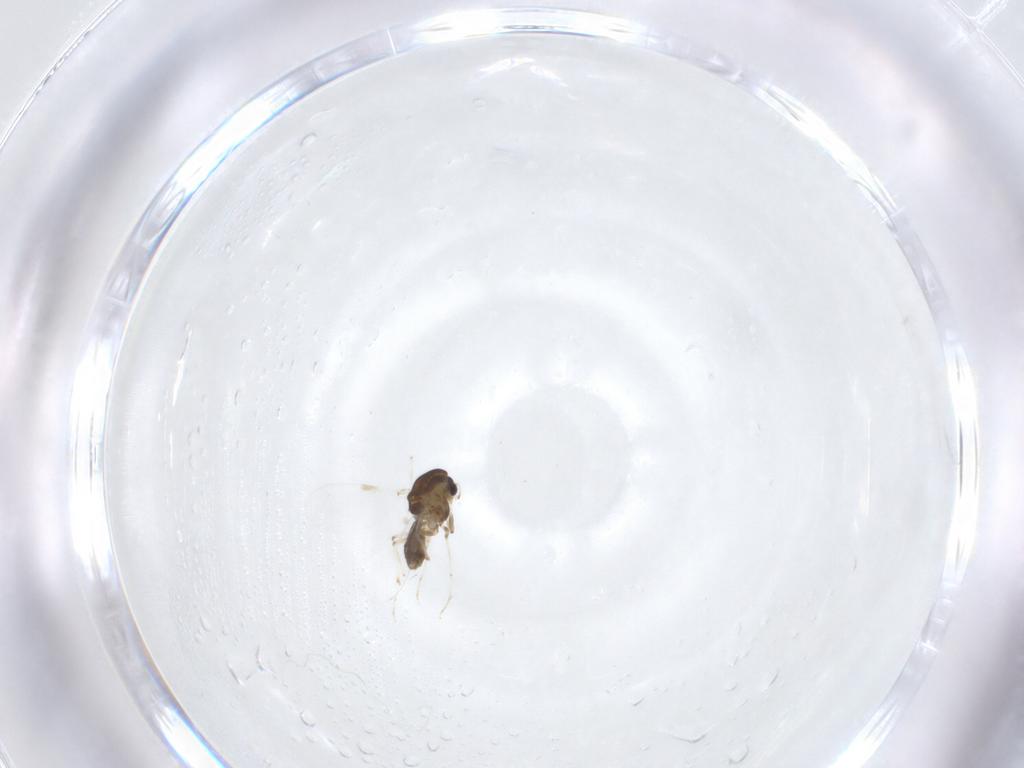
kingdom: Animalia
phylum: Arthropoda
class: Insecta
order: Diptera
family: Chironomidae
